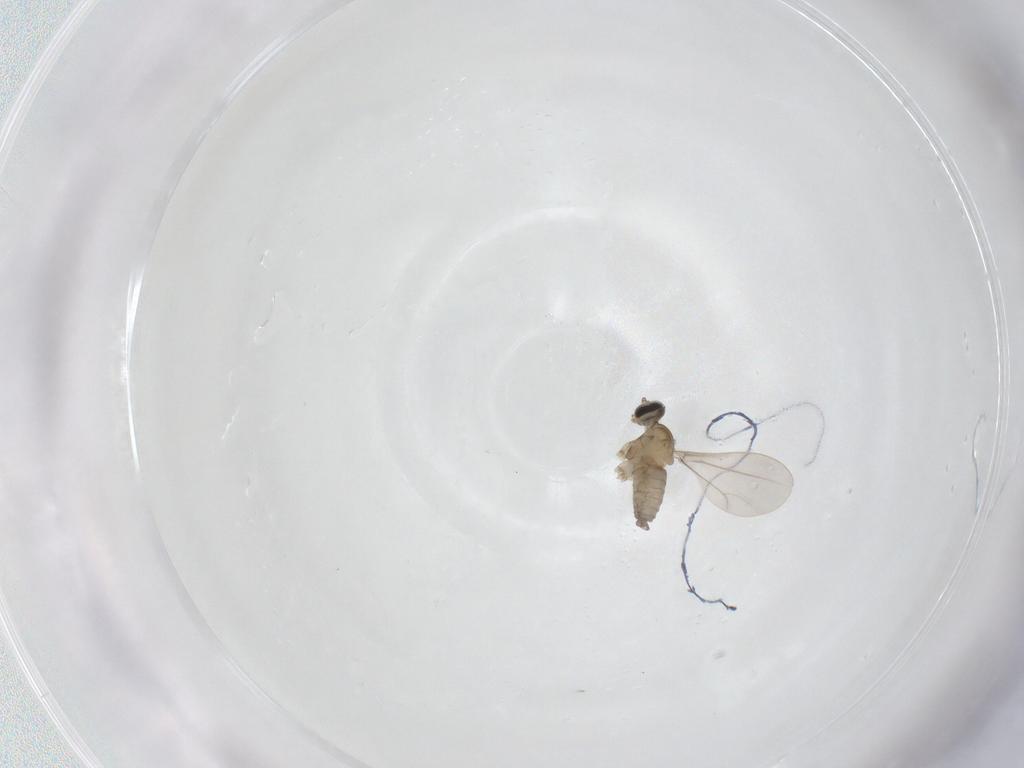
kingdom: Animalia
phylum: Arthropoda
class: Insecta
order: Diptera
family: Cecidomyiidae
